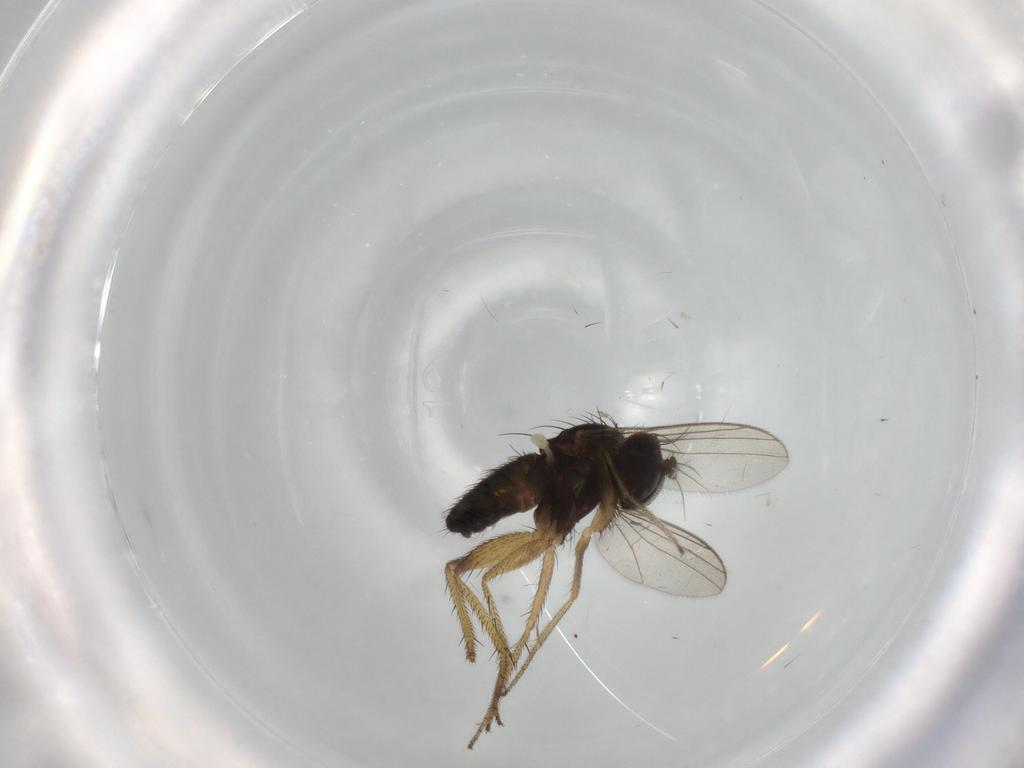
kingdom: Animalia
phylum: Arthropoda
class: Insecta
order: Diptera
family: Dolichopodidae
